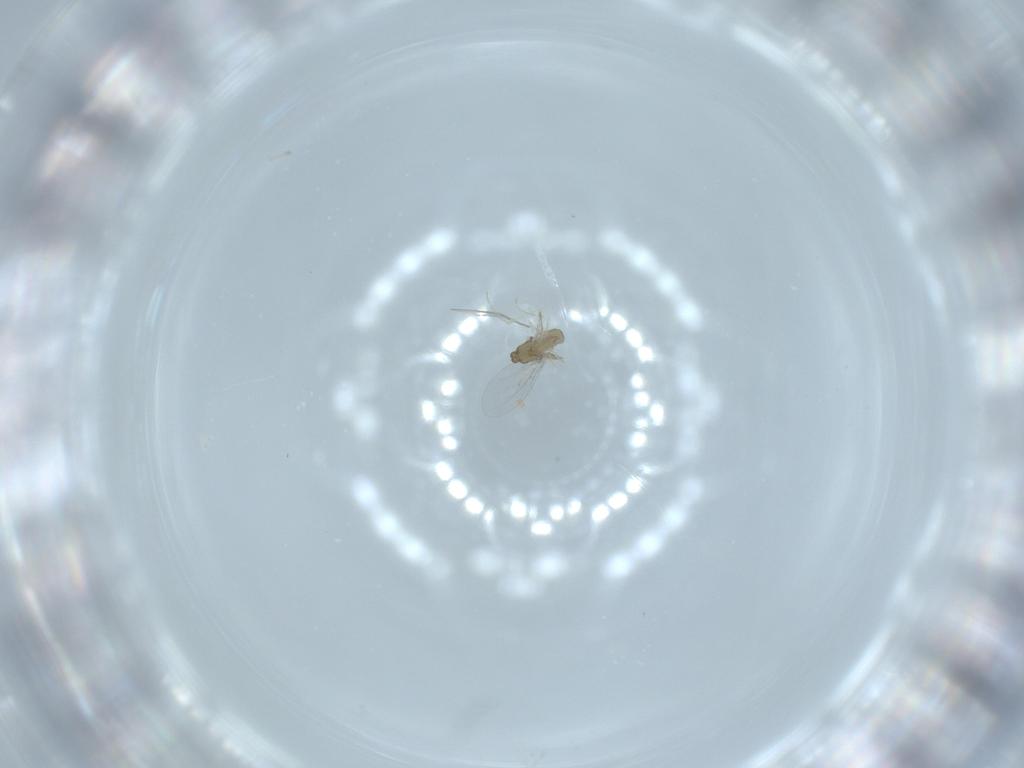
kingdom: Animalia
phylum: Arthropoda
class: Insecta
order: Diptera
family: Cecidomyiidae
